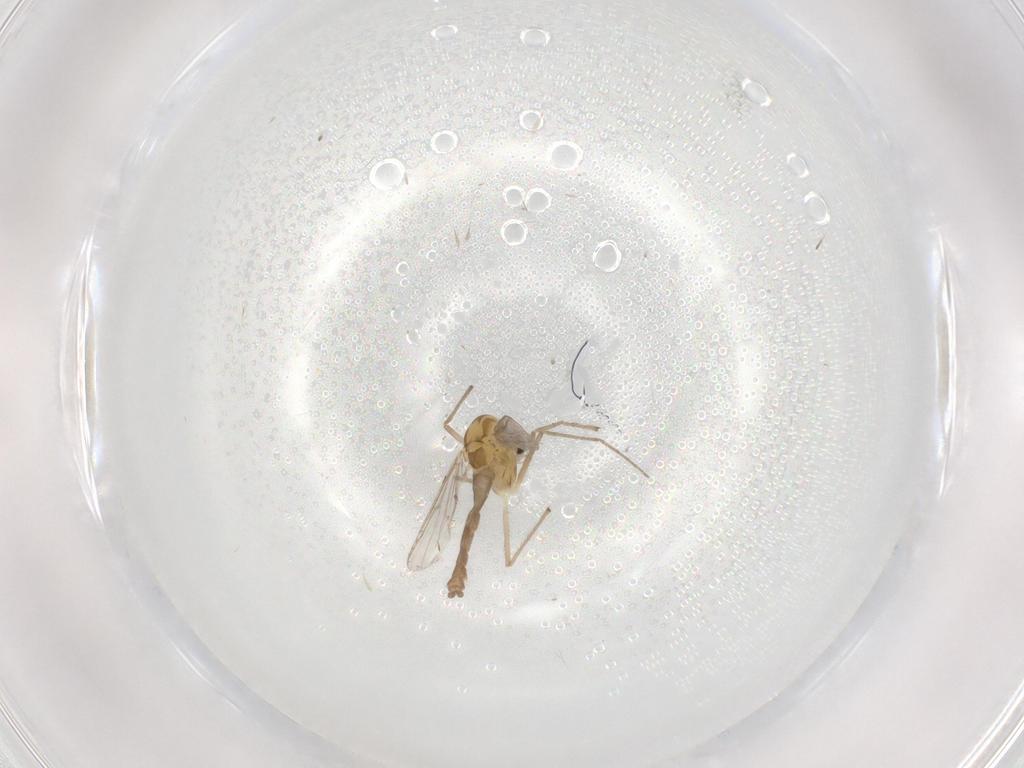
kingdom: Animalia
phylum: Arthropoda
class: Insecta
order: Diptera
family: Chironomidae
